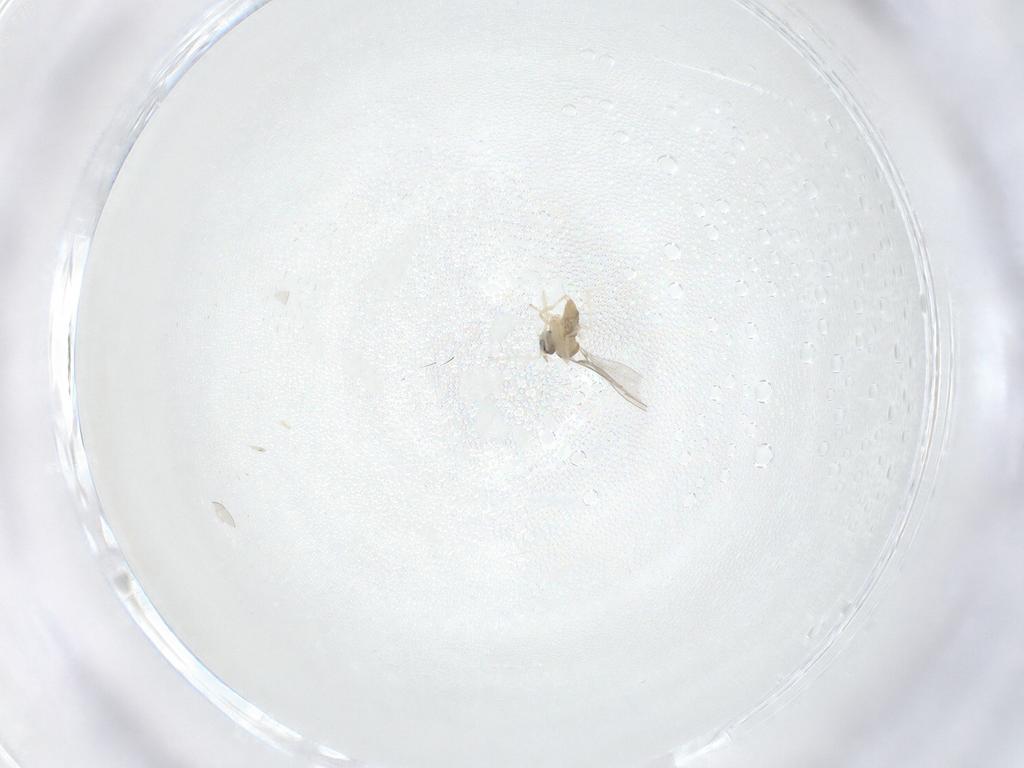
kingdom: Animalia
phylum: Arthropoda
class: Insecta
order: Diptera
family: Cecidomyiidae
